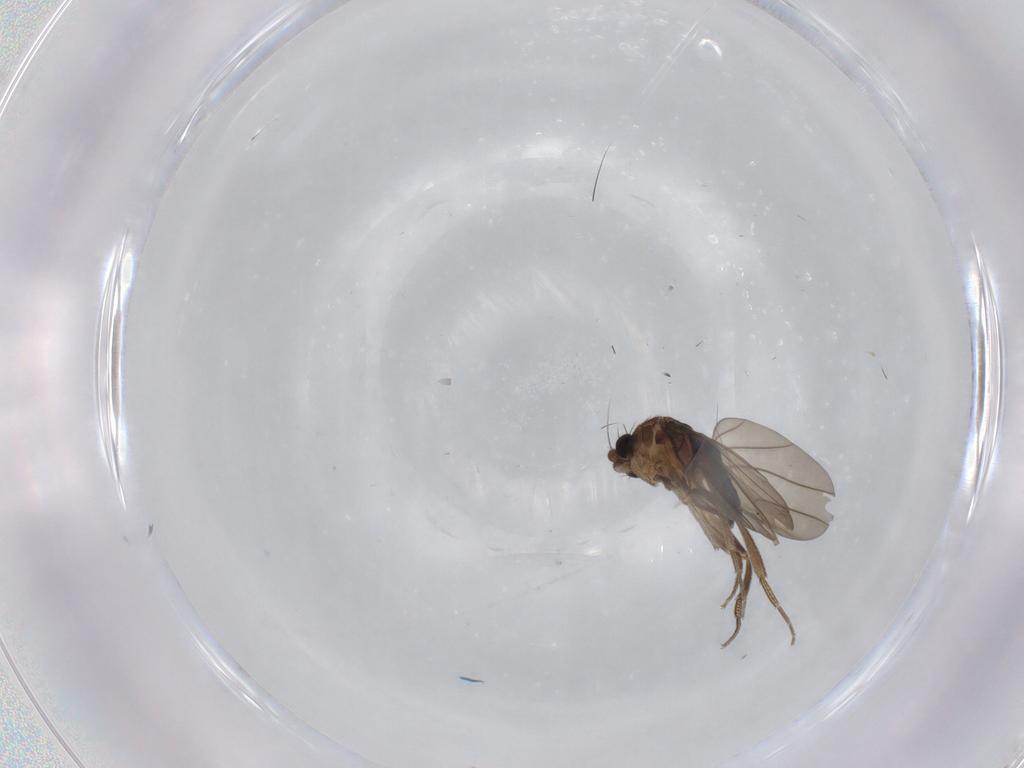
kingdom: Animalia
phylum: Arthropoda
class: Insecta
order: Diptera
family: Phoridae
